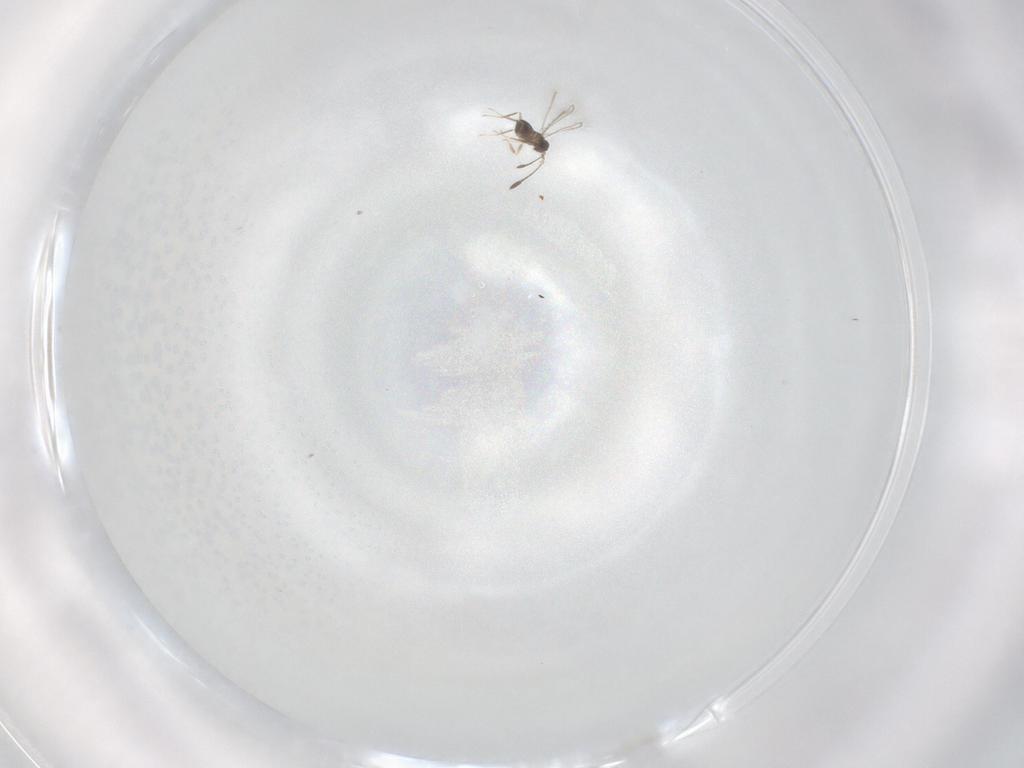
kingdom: Animalia
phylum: Arthropoda
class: Insecta
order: Hymenoptera
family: Mymaridae
